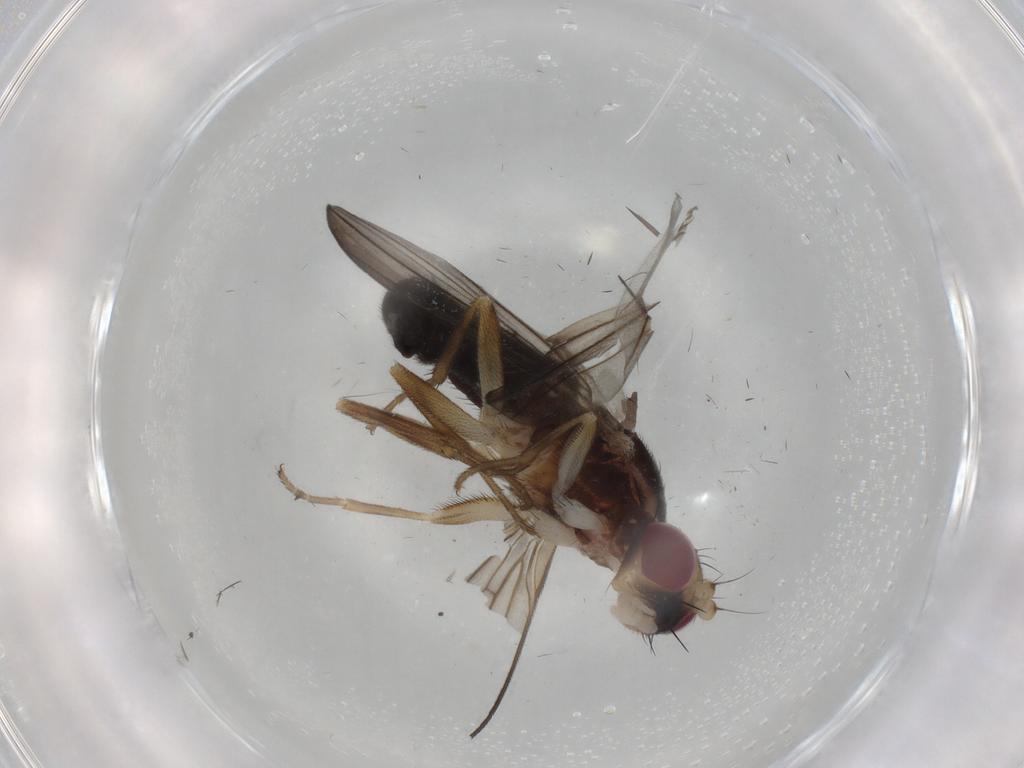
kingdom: Animalia
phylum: Arthropoda
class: Insecta
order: Diptera
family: Clusiidae
